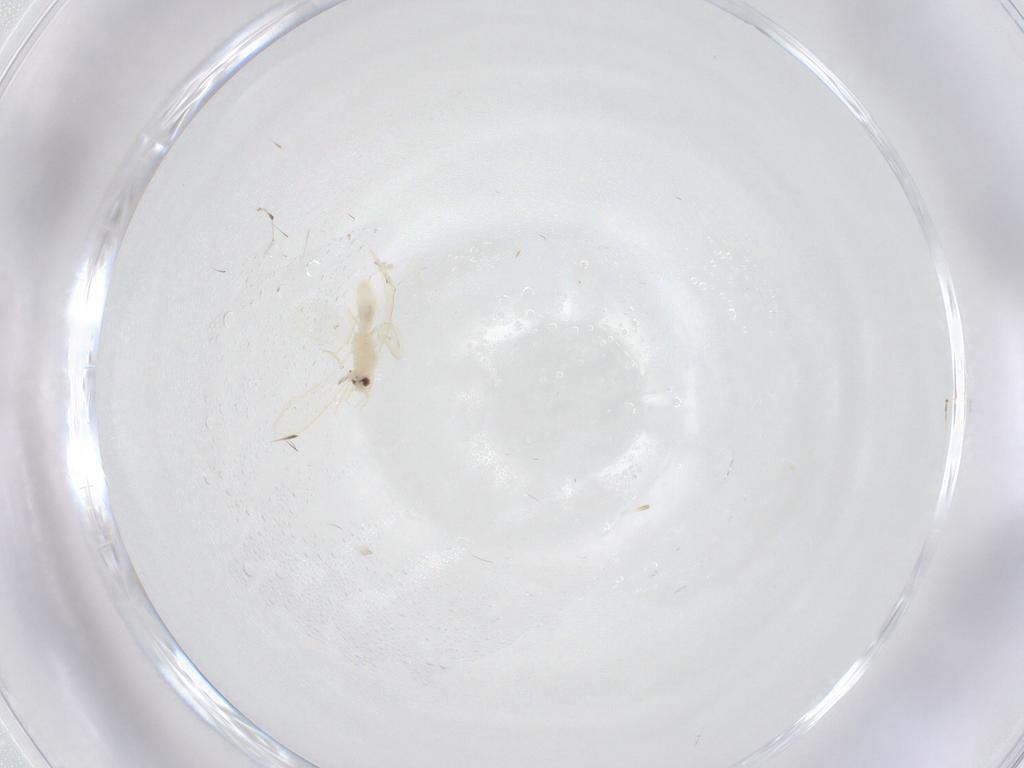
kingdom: Animalia
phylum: Arthropoda
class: Insecta
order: Diptera
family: Cecidomyiidae
